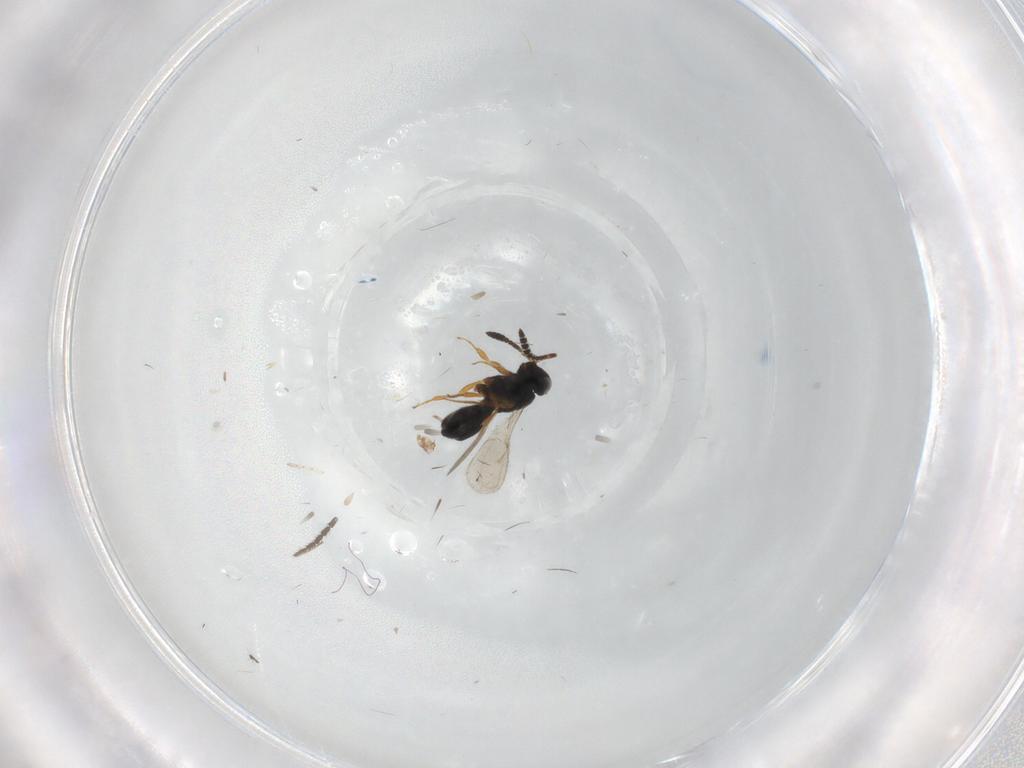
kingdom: Animalia
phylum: Arthropoda
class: Insecta
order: Hymenoptera
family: Scelionidae
